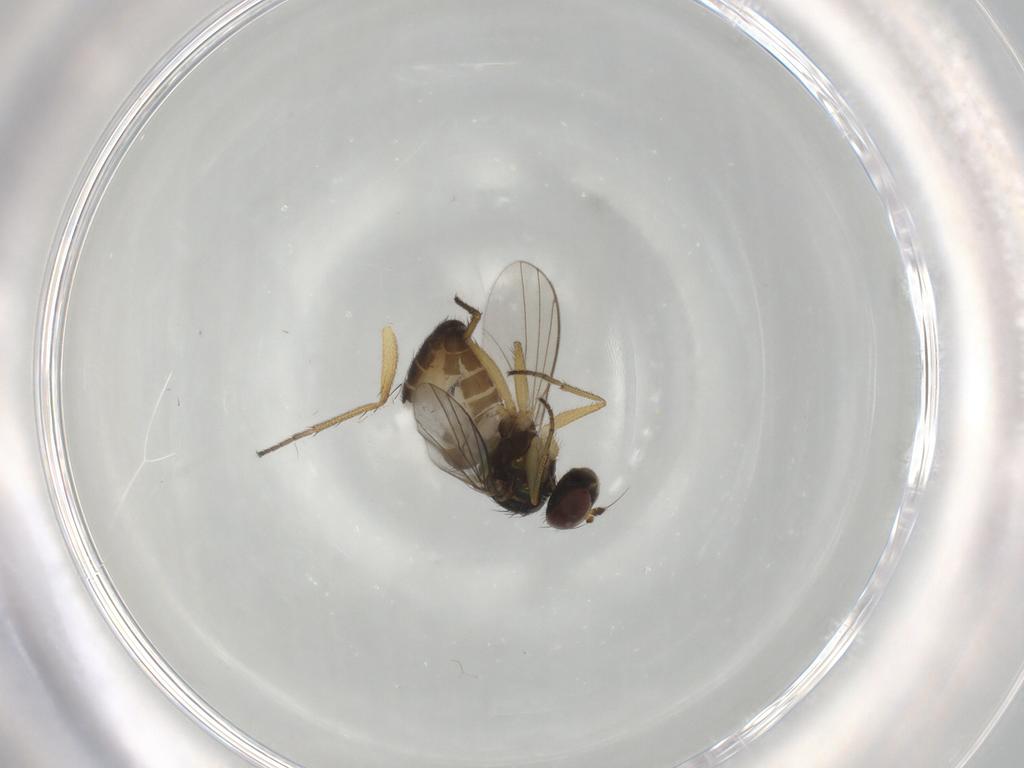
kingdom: Animalia
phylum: Arthropoda
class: Insecta
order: Diptera
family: Dolichopodidae
